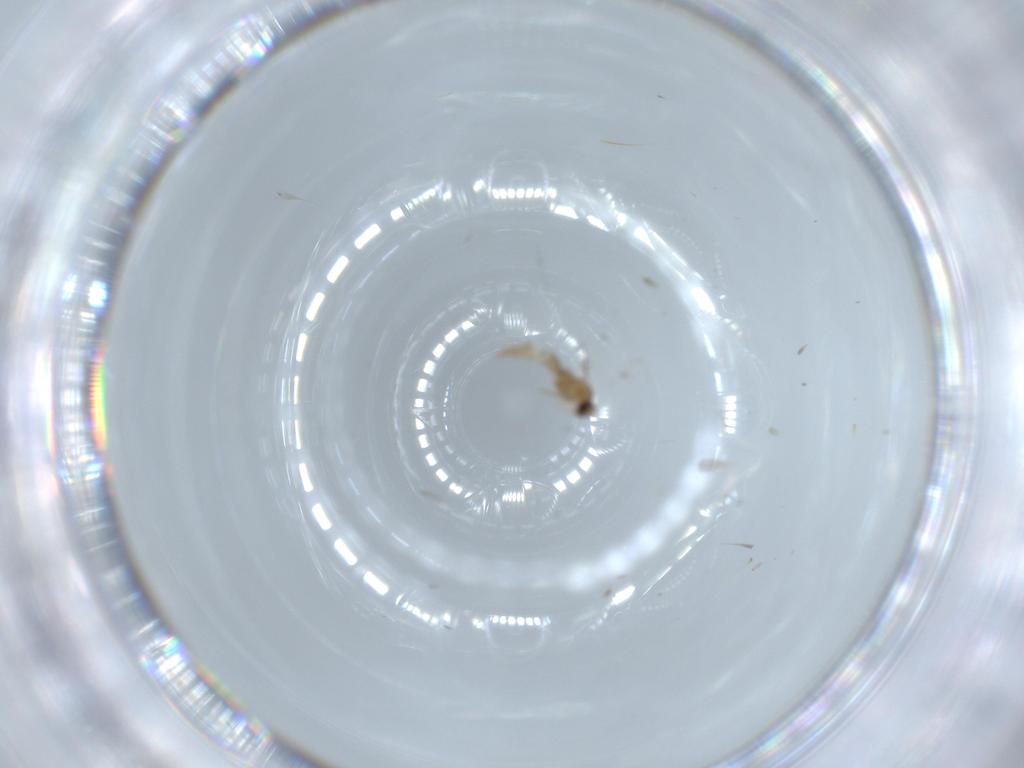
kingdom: Animalia
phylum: Arthropoda
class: Insecta
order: Diptera
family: Cecidomyiidae
